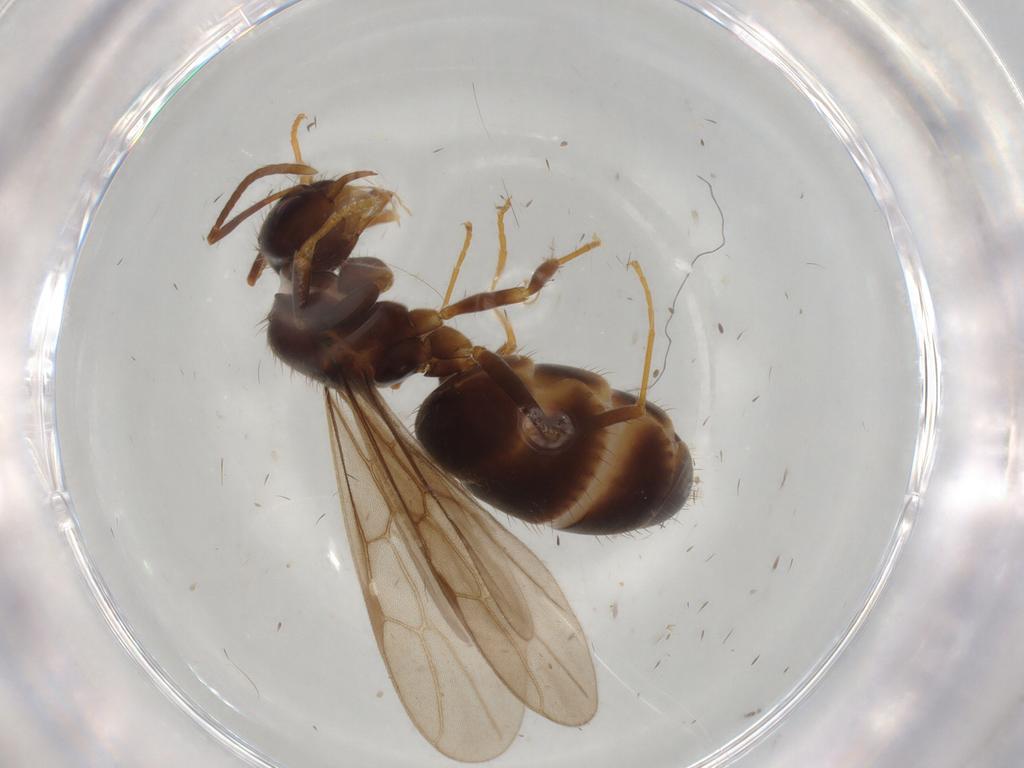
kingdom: Animalia
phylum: Arthropoda
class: Insecta
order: Hymenoptera
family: Formicidae
